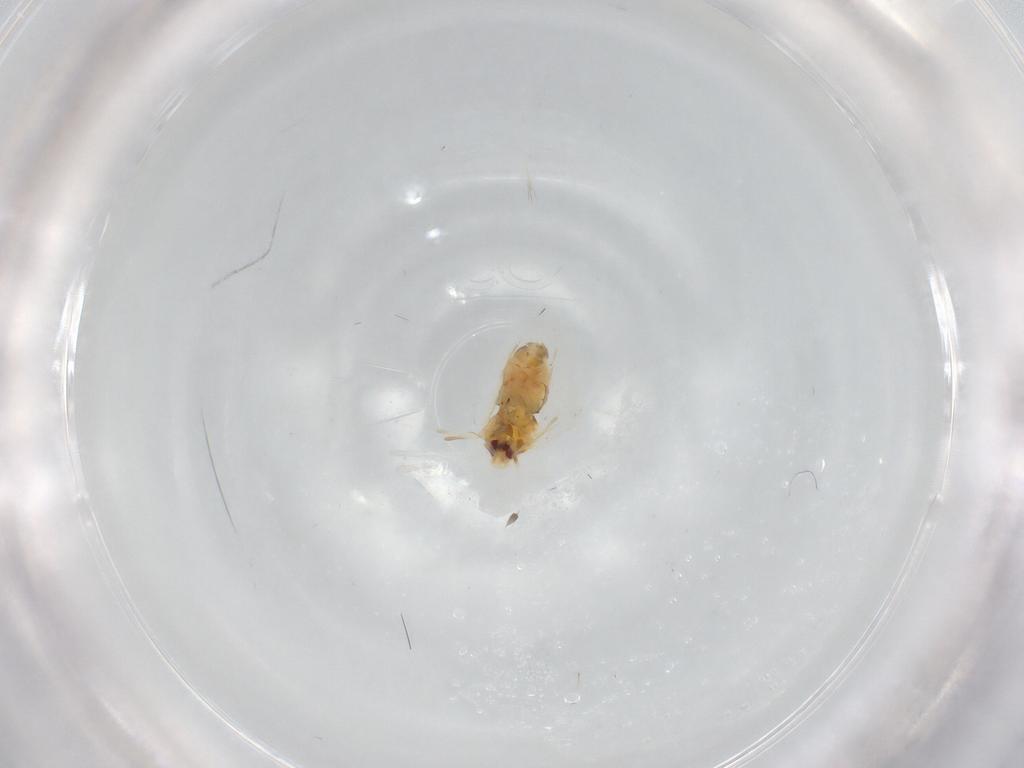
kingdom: Animalia
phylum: Arthropoda
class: Insecta
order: Hemiptera
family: Aleyrodidae
